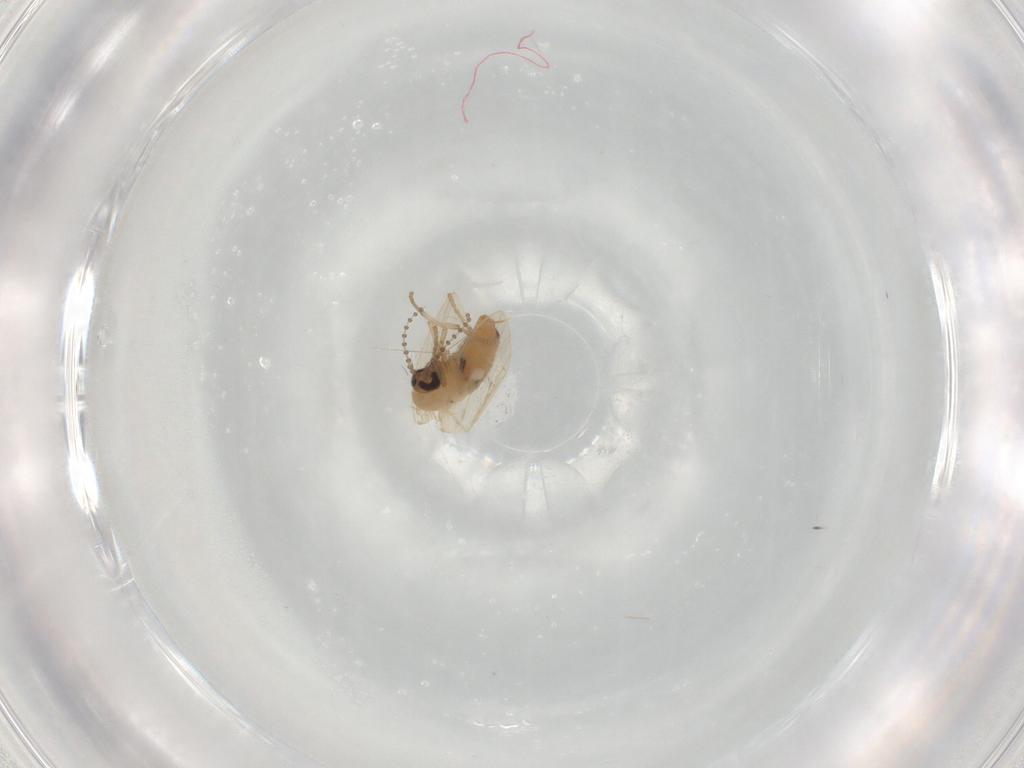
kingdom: Animalia
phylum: Arthropoda
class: Insecta
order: Diptera
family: Psychodidae
